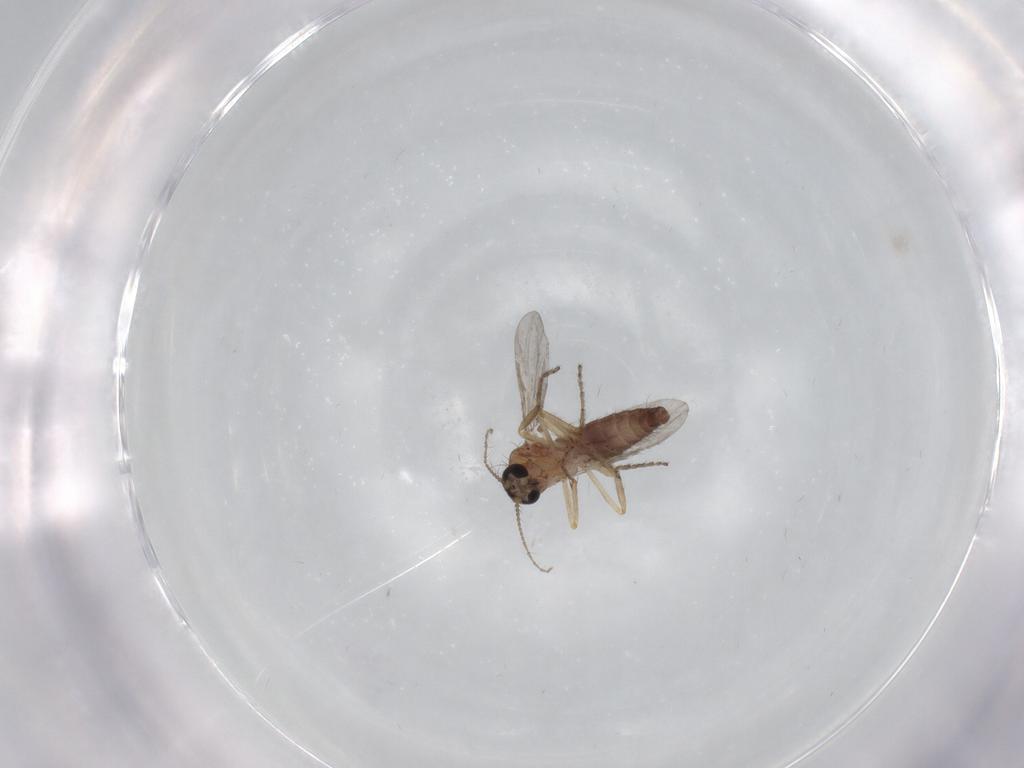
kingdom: Animalia
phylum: Arthropoda
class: Insecta
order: Diptera
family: Ceratopogonidae
